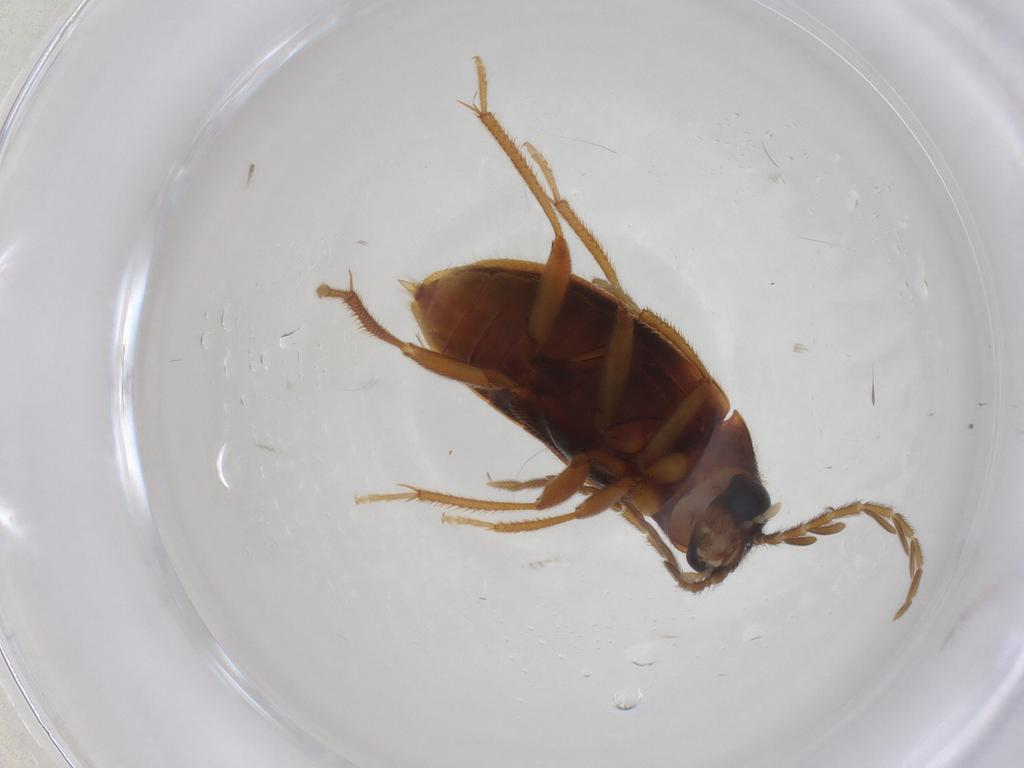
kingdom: Animalia
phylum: Arthropoda
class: Insecta
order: Coleoptera
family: Ptilodactylidae
